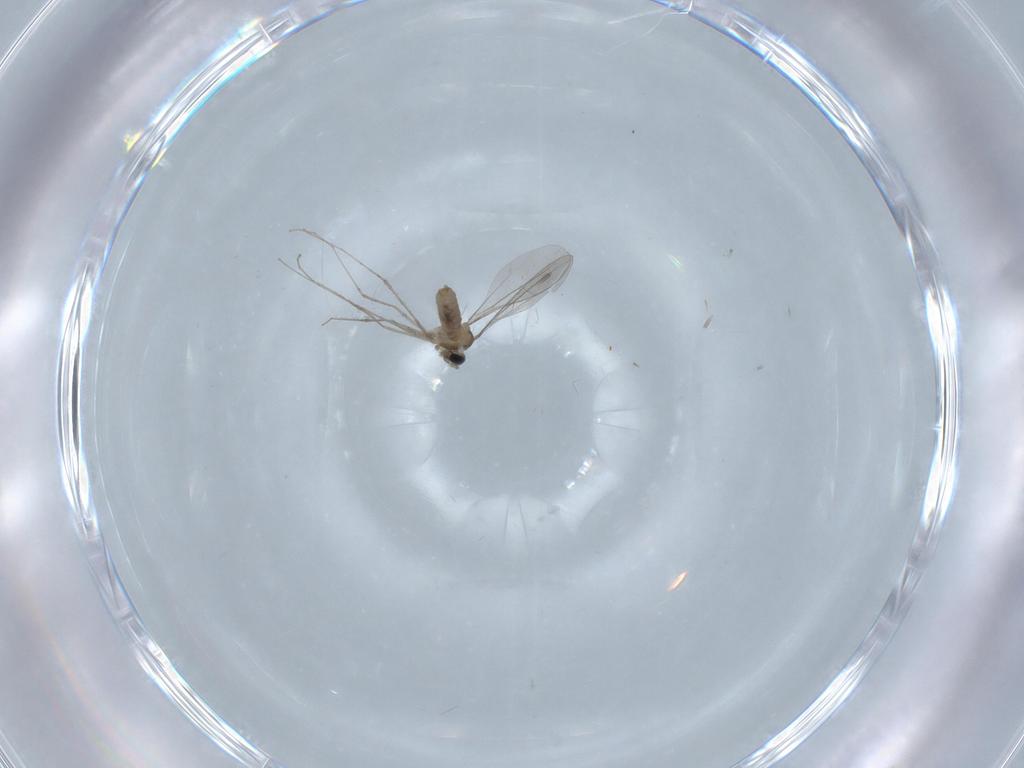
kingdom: Animalia
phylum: Arthropoda
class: Insecta
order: Diptera
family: Cecidomyiidae
